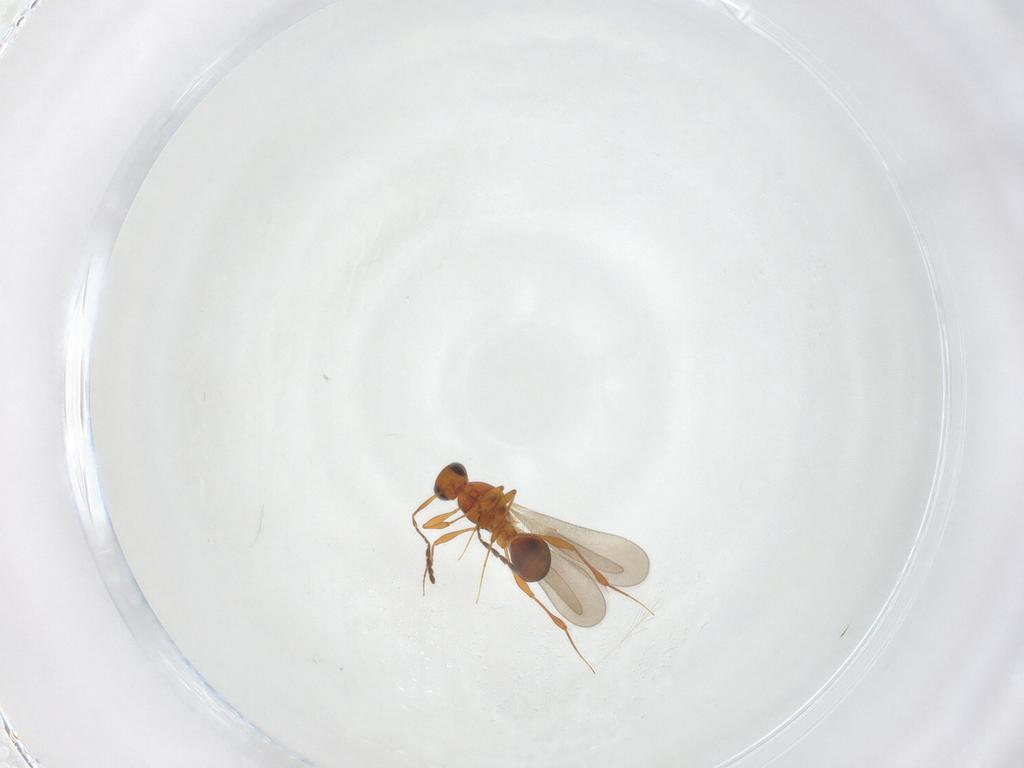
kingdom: Animalia
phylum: Arthropoda
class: Insecta
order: Hymenoptera
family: Platygastridae
